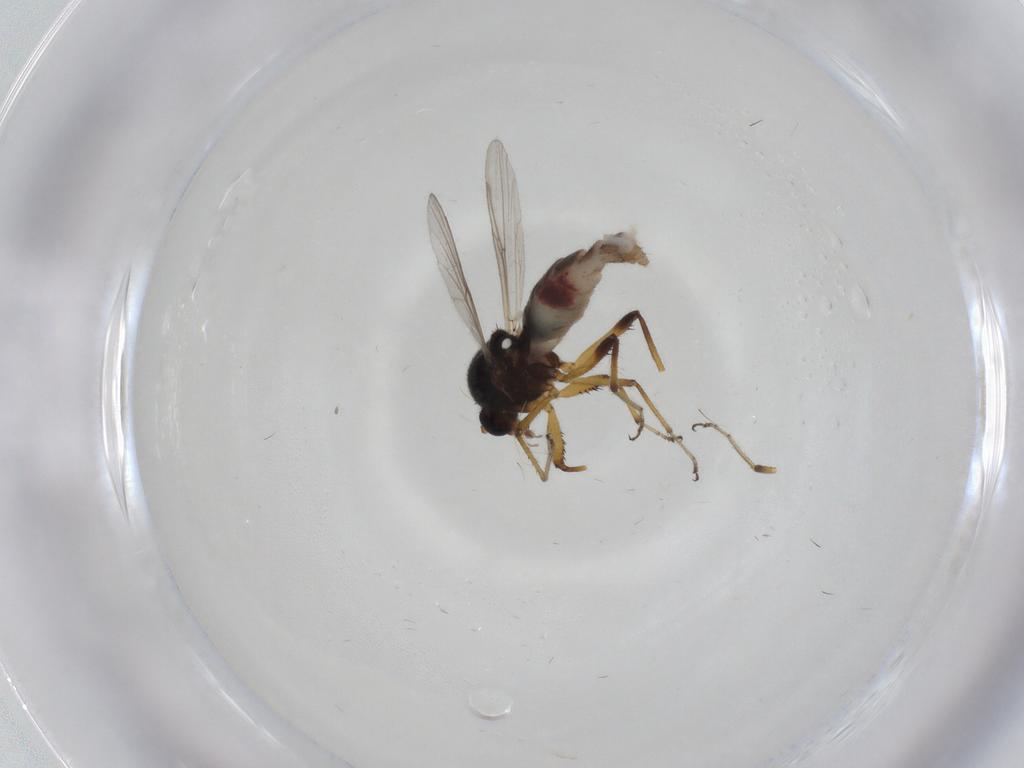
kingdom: Animalia
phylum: Arthropoda
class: Insecta
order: Diptera
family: Ceratopogonidae
